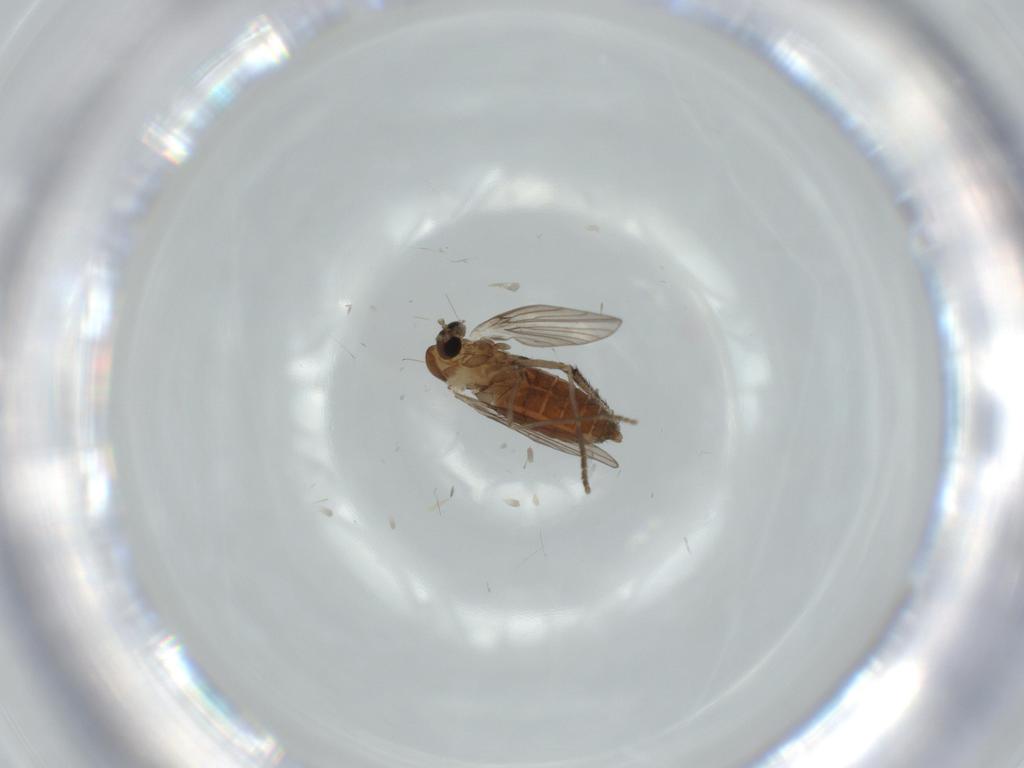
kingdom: Animalia
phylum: Arthropoda
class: Insecta
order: Diptera
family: Psychodidae
